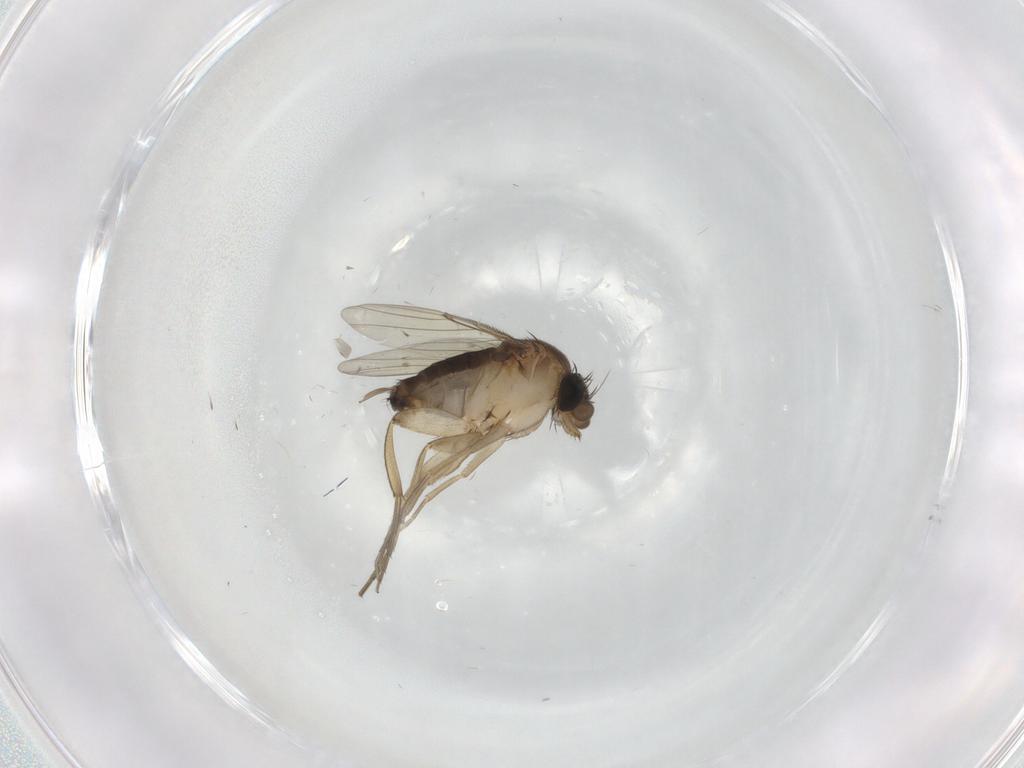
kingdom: Animalia
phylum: Arthropoda
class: Insecta
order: Diptera
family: Phoridae
